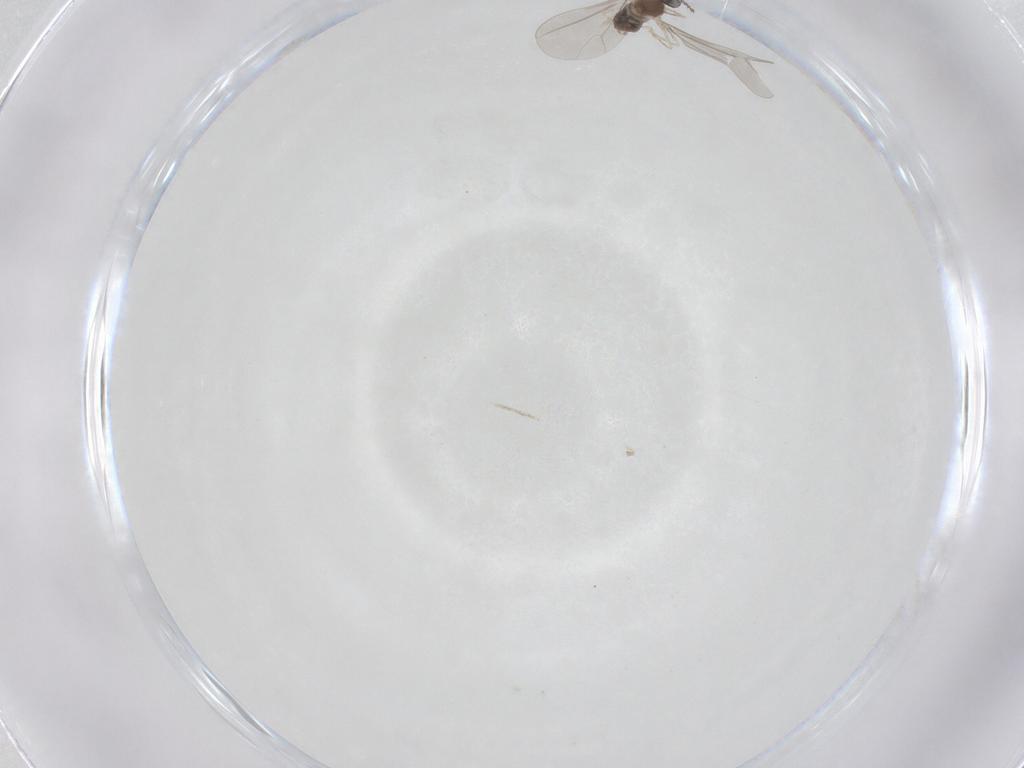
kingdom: Animalia
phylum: Arthropoda
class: Insecta
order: Diptera
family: Cecidomyiidae
